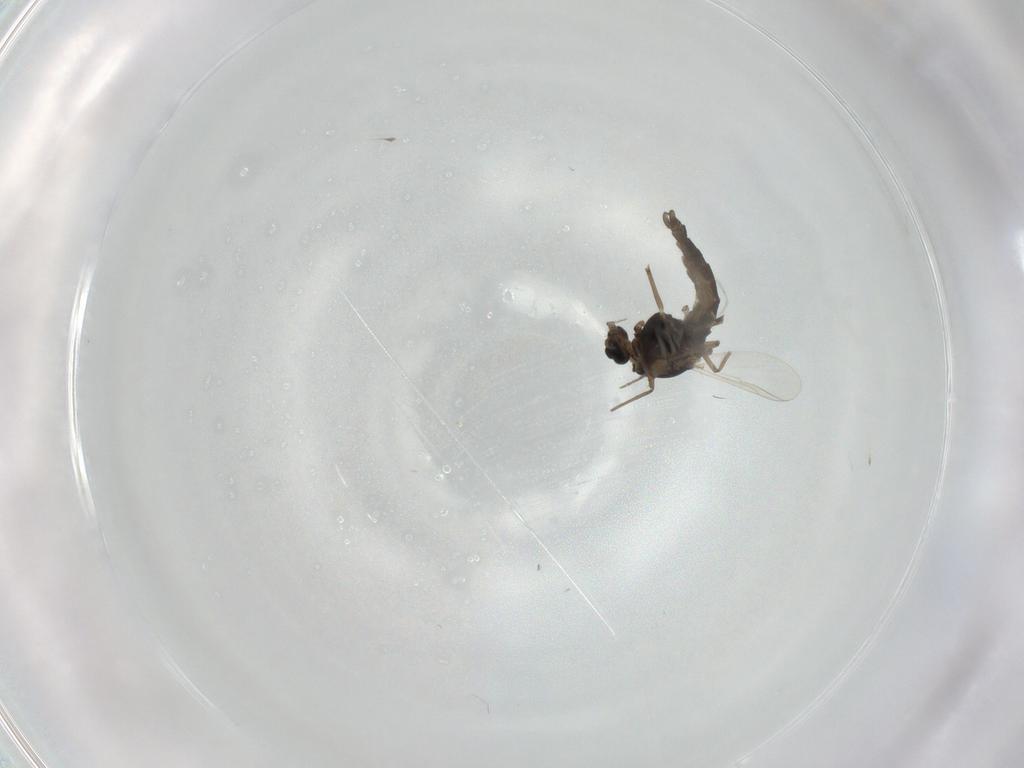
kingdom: Animalia
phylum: Arthropoda
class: Insecta
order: Diptera
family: Chironomidae
